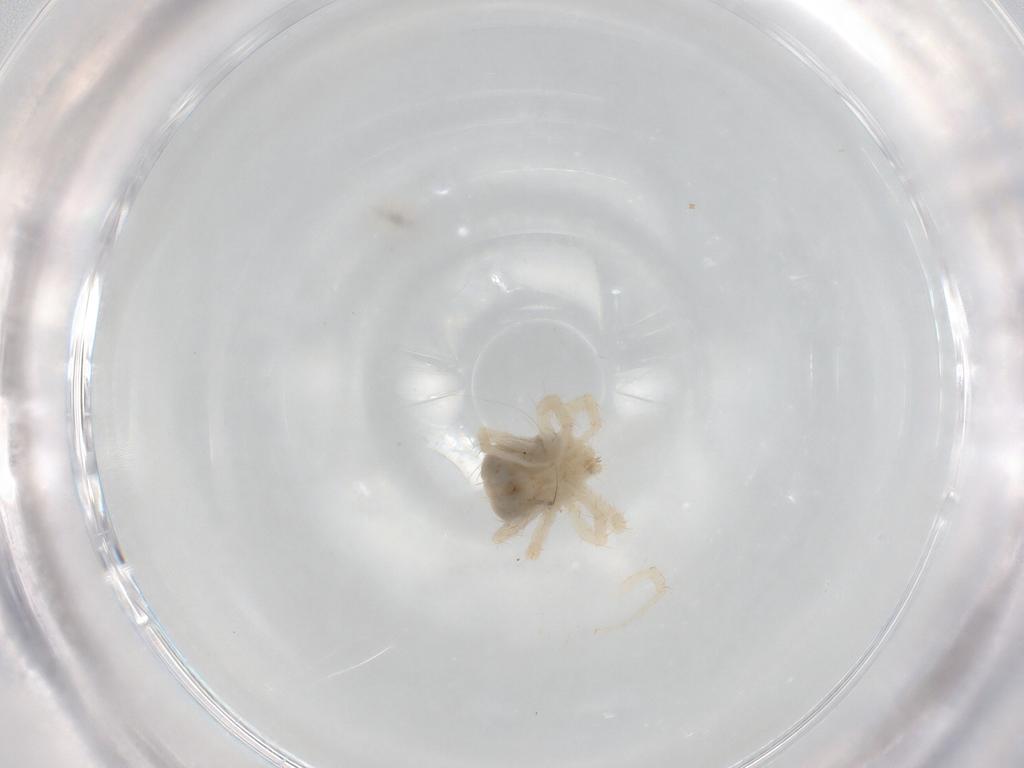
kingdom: Animalia
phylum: Arthropoda
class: Arachnida
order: Trombidiformes
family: Anystidae
